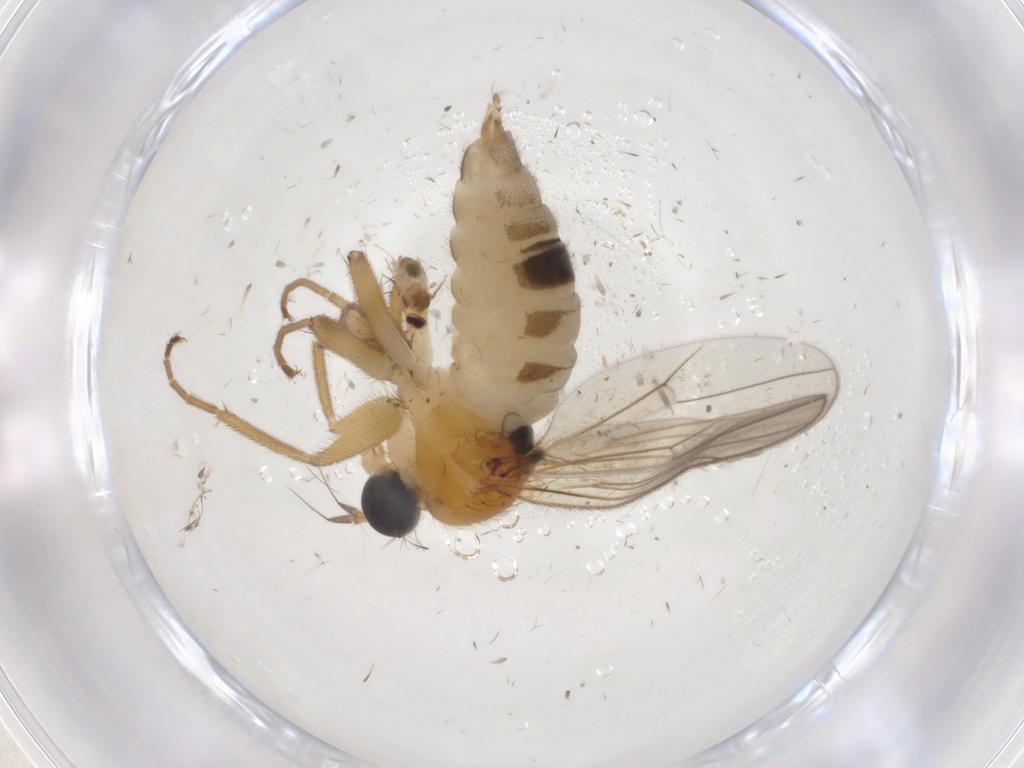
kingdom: Animalia
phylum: Arthropoda
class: Insecta
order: Diptera
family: Hybotidae
